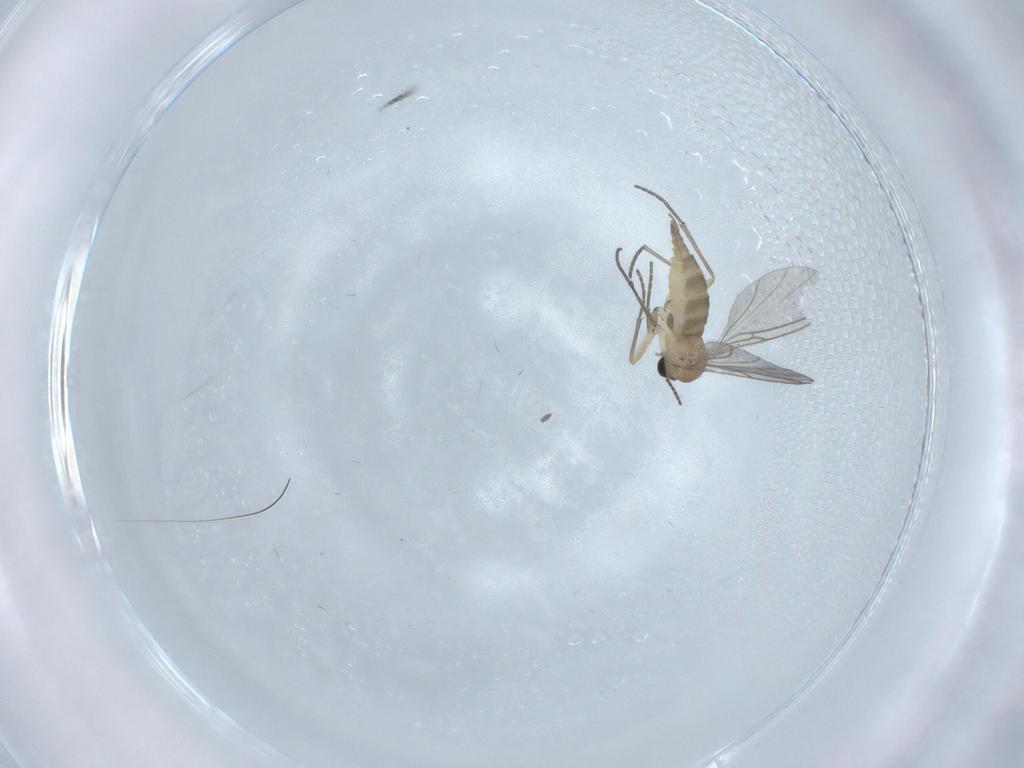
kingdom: Animalia
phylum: Arthropoda
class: Insecta
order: Diptera
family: Sciaridae
